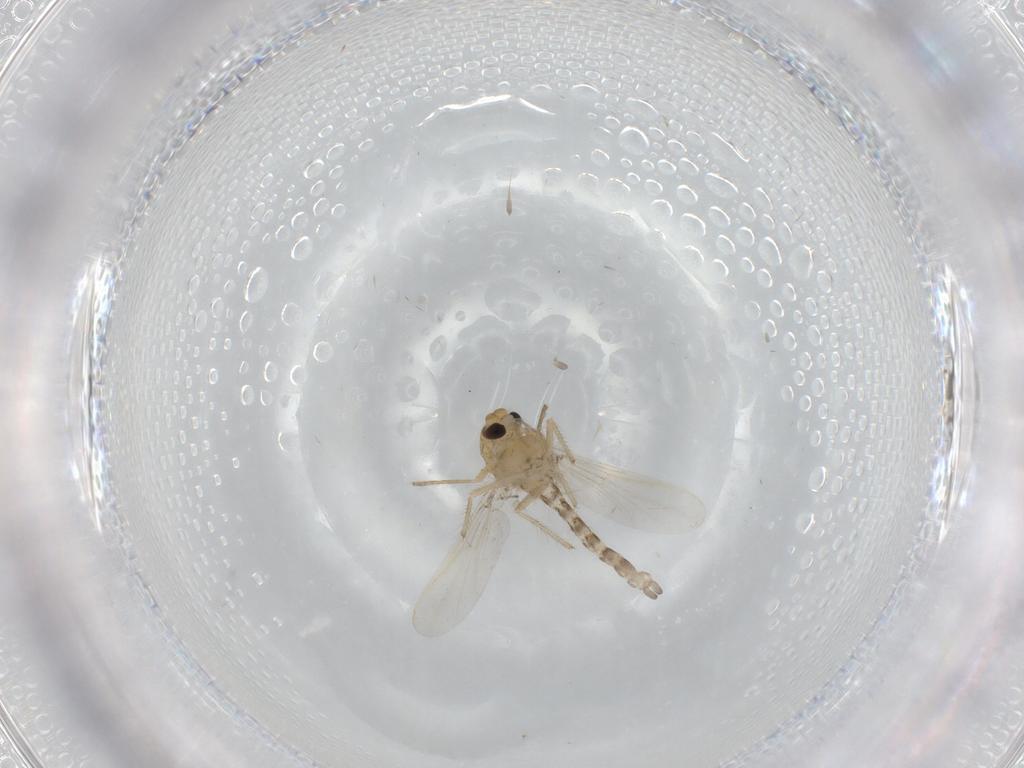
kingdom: Animalia
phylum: Arthropoda
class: Insecta
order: Diptera
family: Chironomidae
